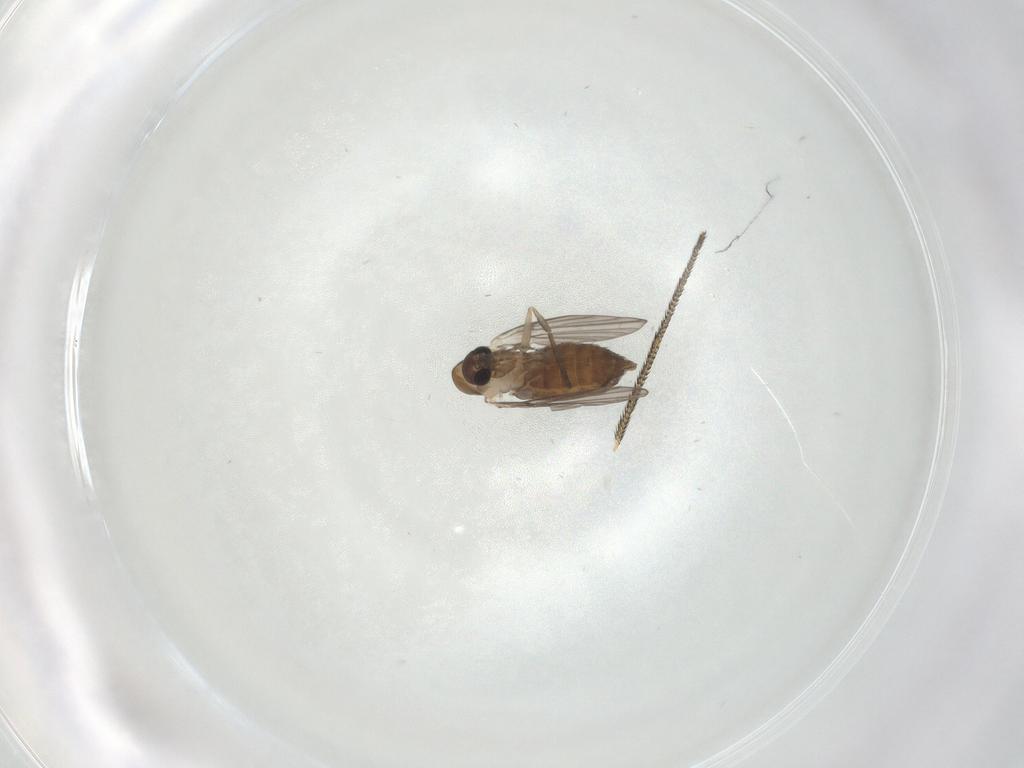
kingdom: Animalia
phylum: Arthropoda
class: Insecta
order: Diptera
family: Psychodidae
